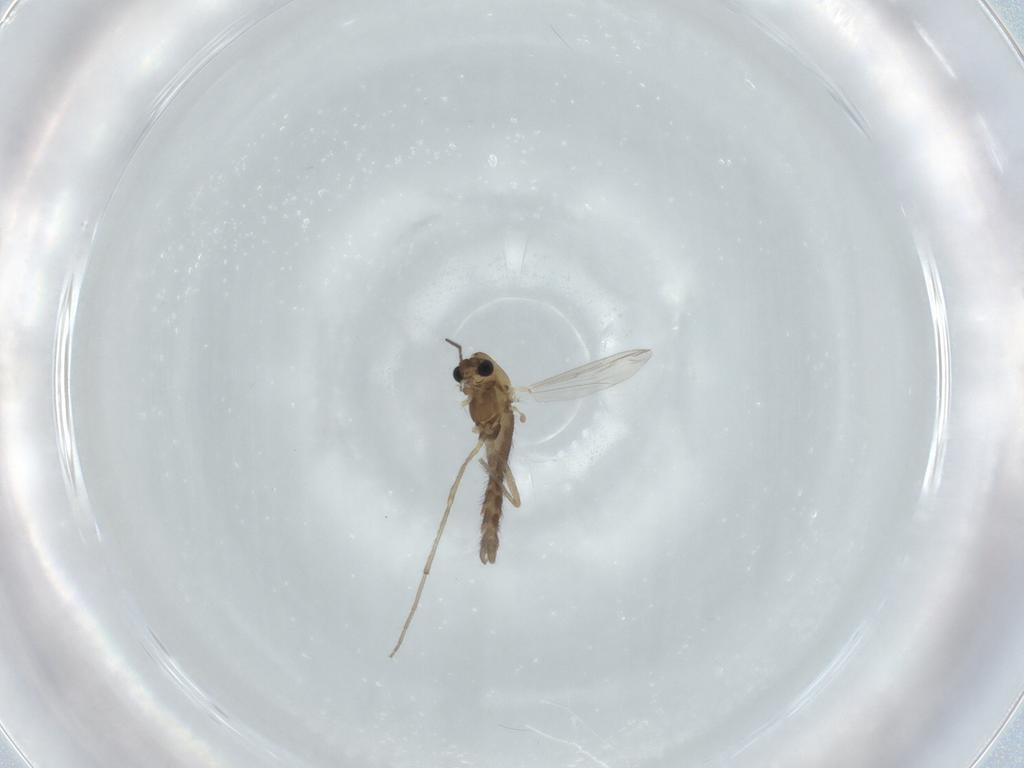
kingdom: Animalia
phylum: Arthropoda
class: Insecta
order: Diptera
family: Chironomidae
